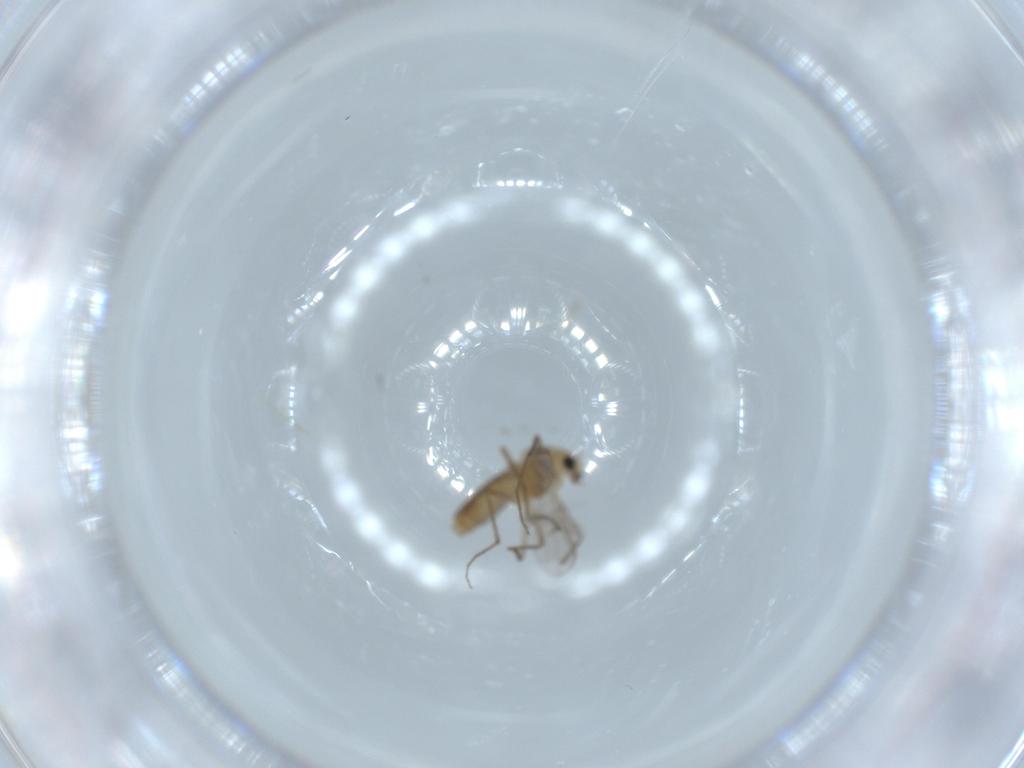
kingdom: Animalia
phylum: Arthropoda
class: Insecta
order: Diptera
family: Chironomidae
